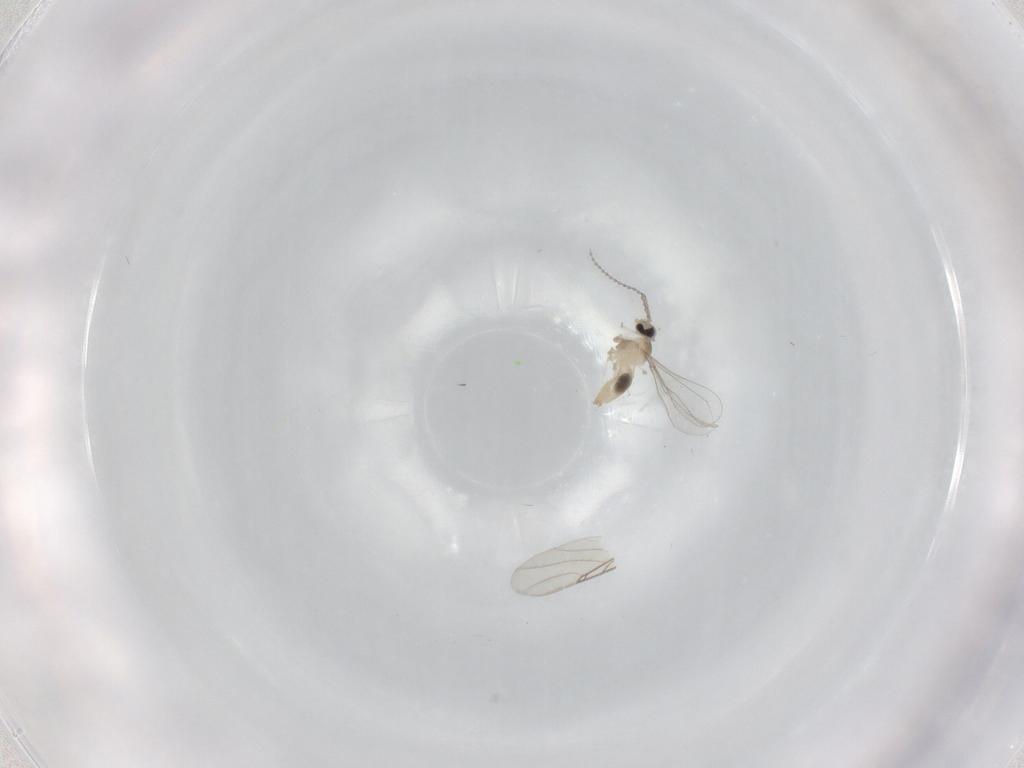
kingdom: Animalia
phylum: Arthropoda
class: Insecta
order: Diptera
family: Cecidomyiidae
